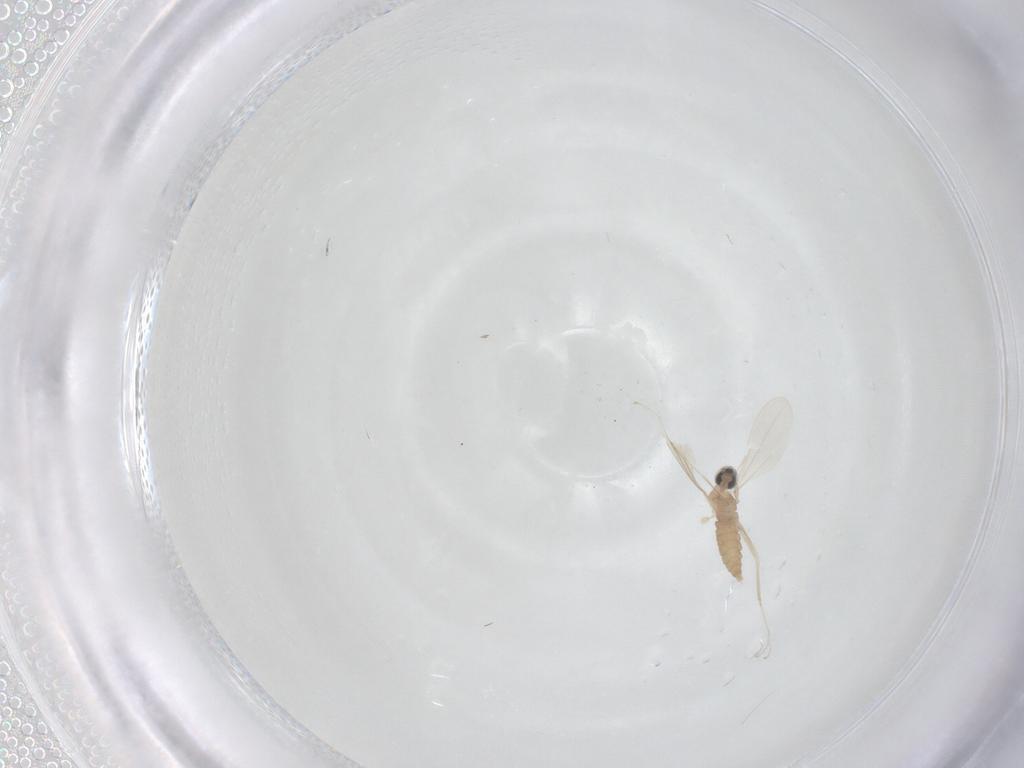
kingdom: Animalia
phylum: Arthropoda
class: Insecta
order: Diptera
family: Cecidomyiidae
